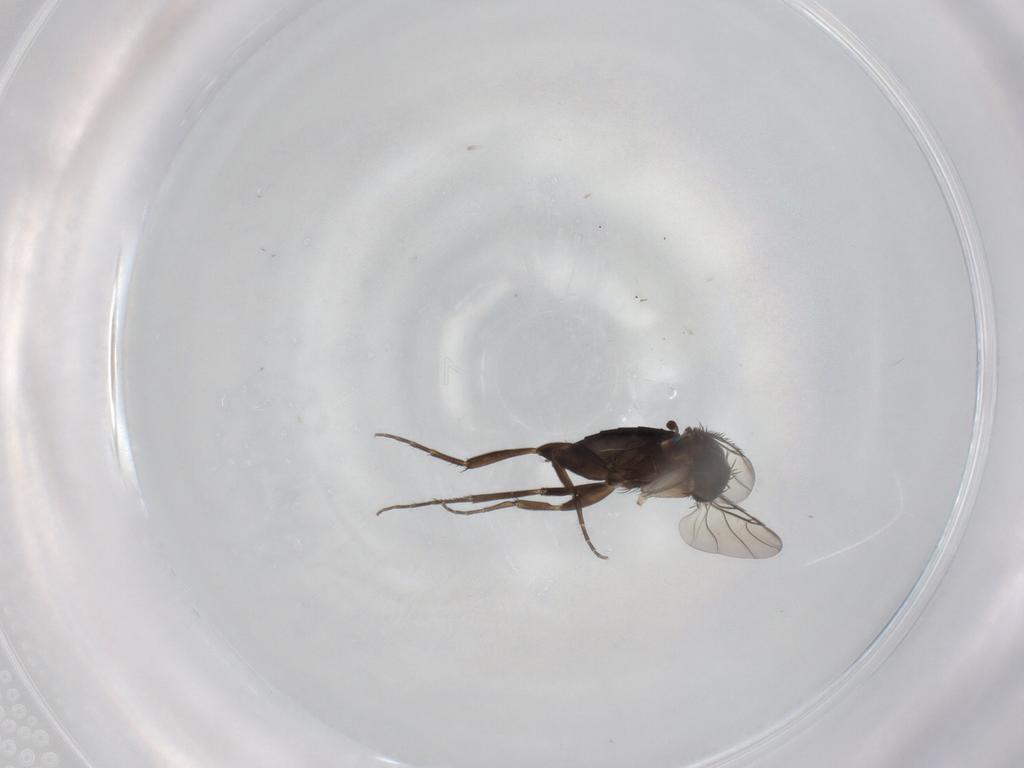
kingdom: Animalia
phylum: Arthropoda
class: Insecta
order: Diptera
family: Phoridae
